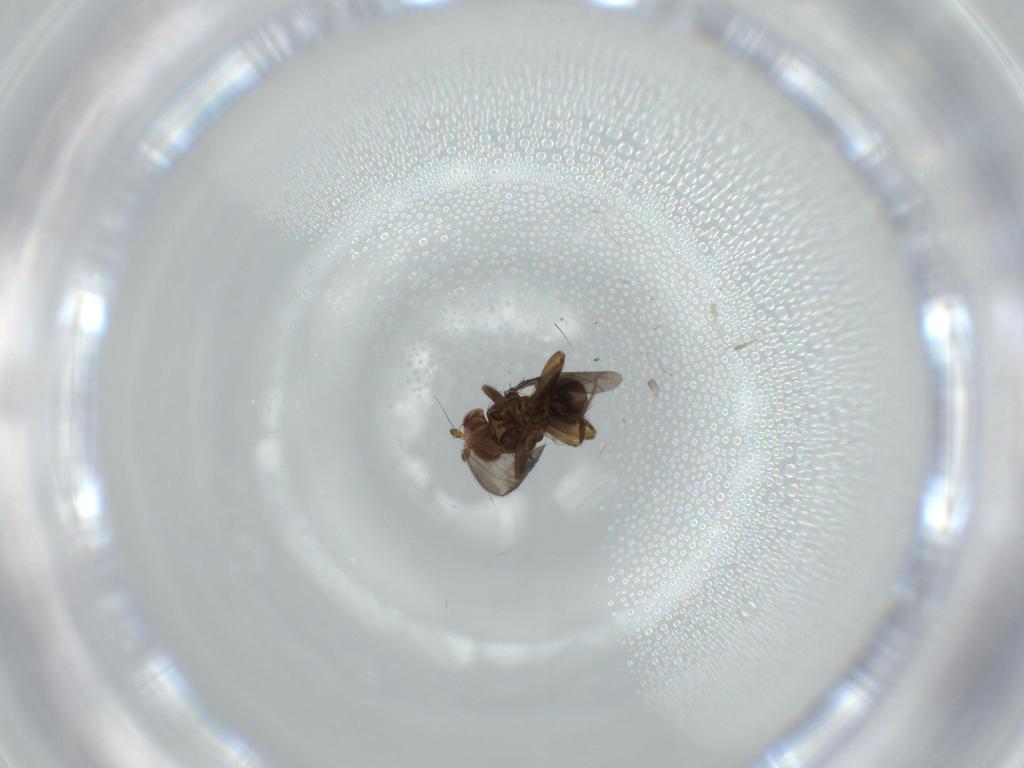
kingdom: Animalia
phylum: Arthropoda
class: Insecta
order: Diptera
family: Sphaeroceridae
